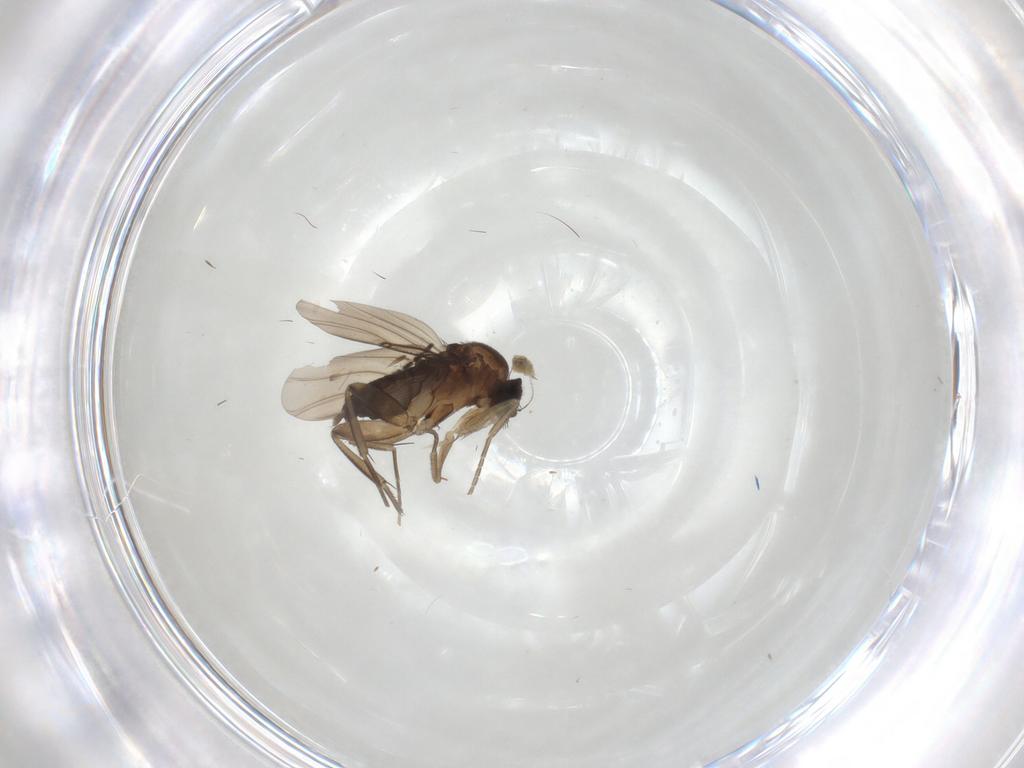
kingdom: Animalia
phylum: Arthropoda
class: Insecta
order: Diptera
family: Phoridae
